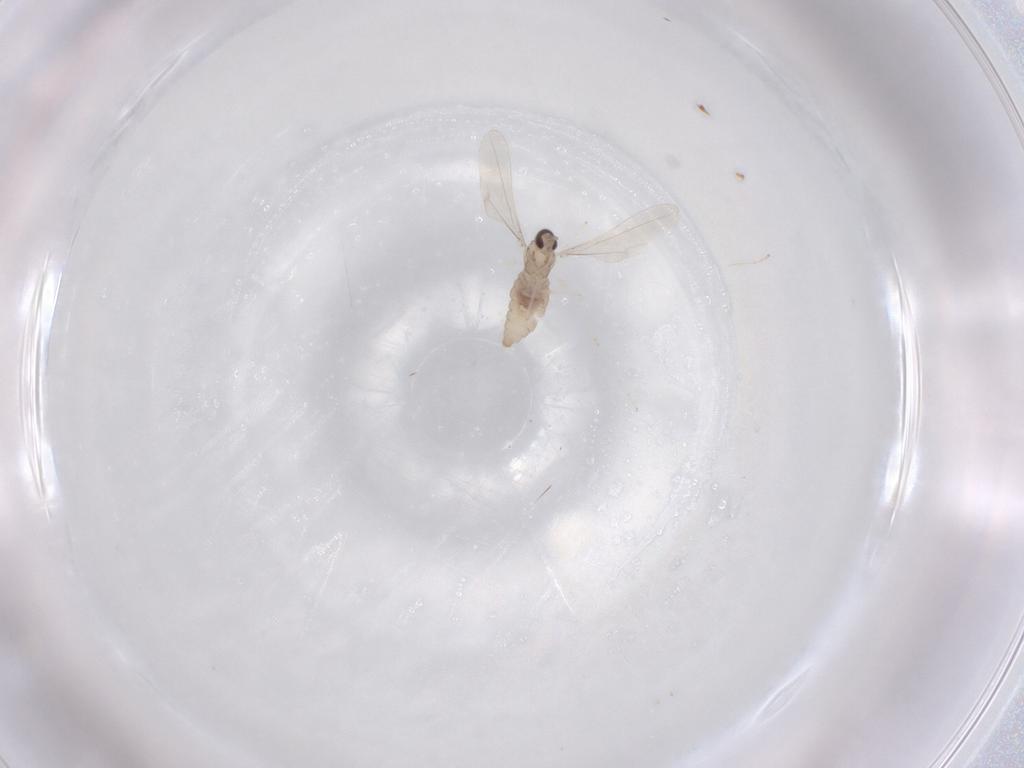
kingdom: Animalia
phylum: Arthropoda
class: Insecta
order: Diptera
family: Cecidomyiidae
